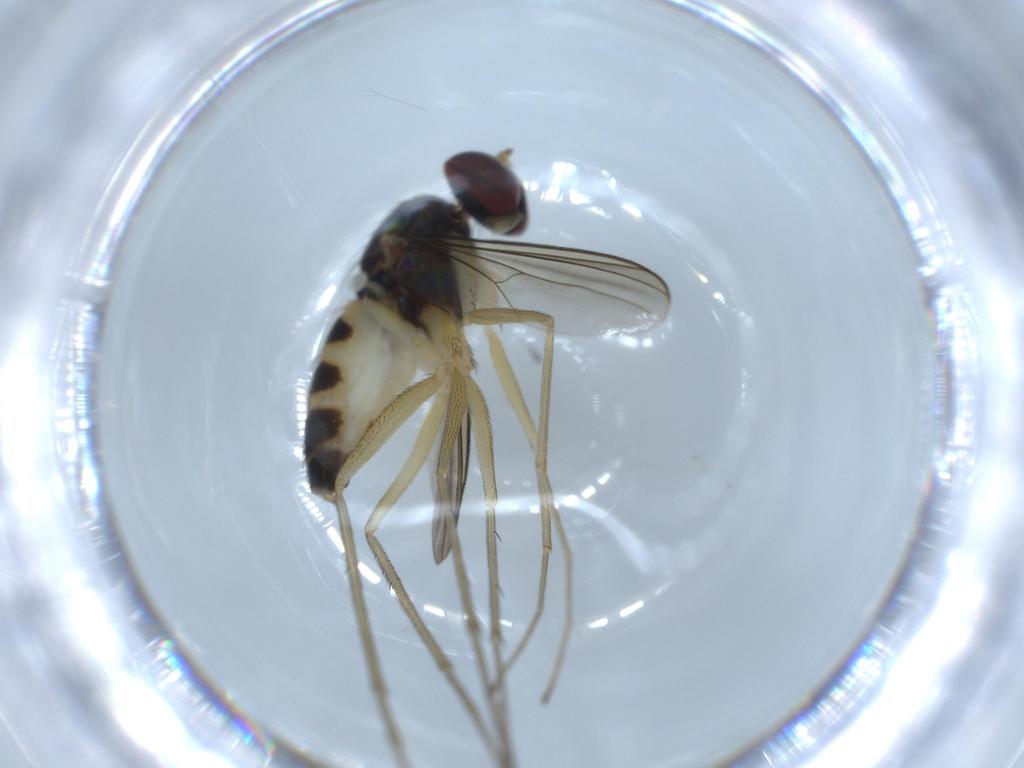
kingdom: Animalia
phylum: Arthropoda
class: Insecta
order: Diptera
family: Dolichopodidae
